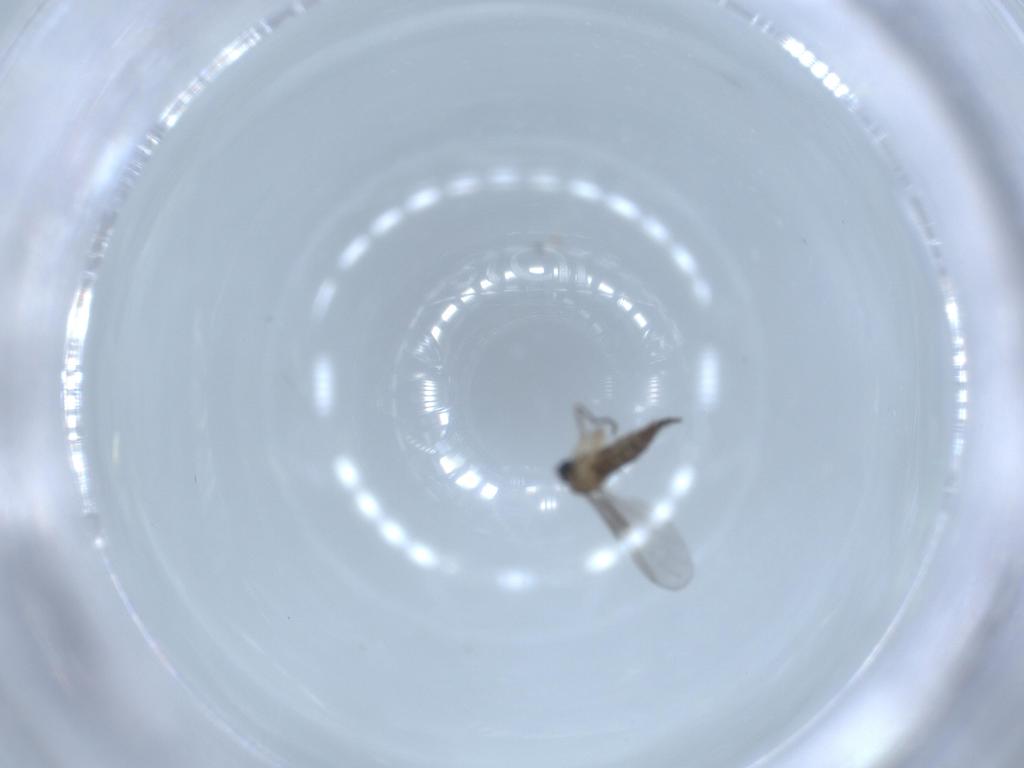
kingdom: Animalia
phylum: Arthropoda
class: Insecta
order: Diptera
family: Sciaridae
